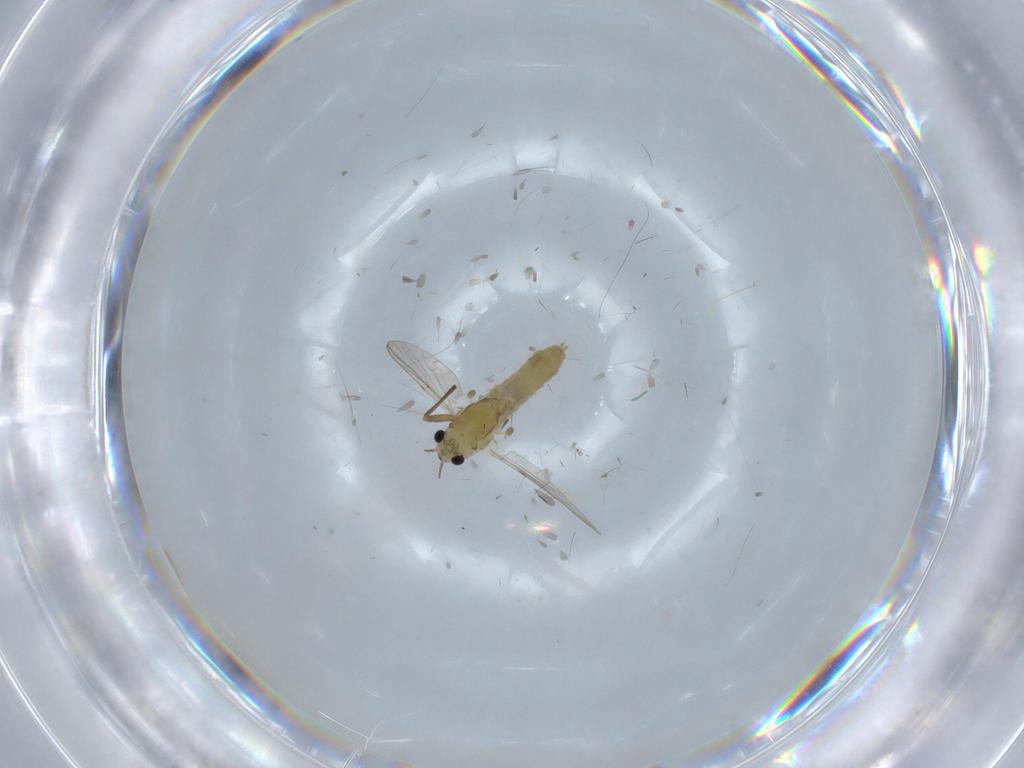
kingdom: Animalia
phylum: Arthropoda
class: Insecta
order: Diptera
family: Chironomidae
